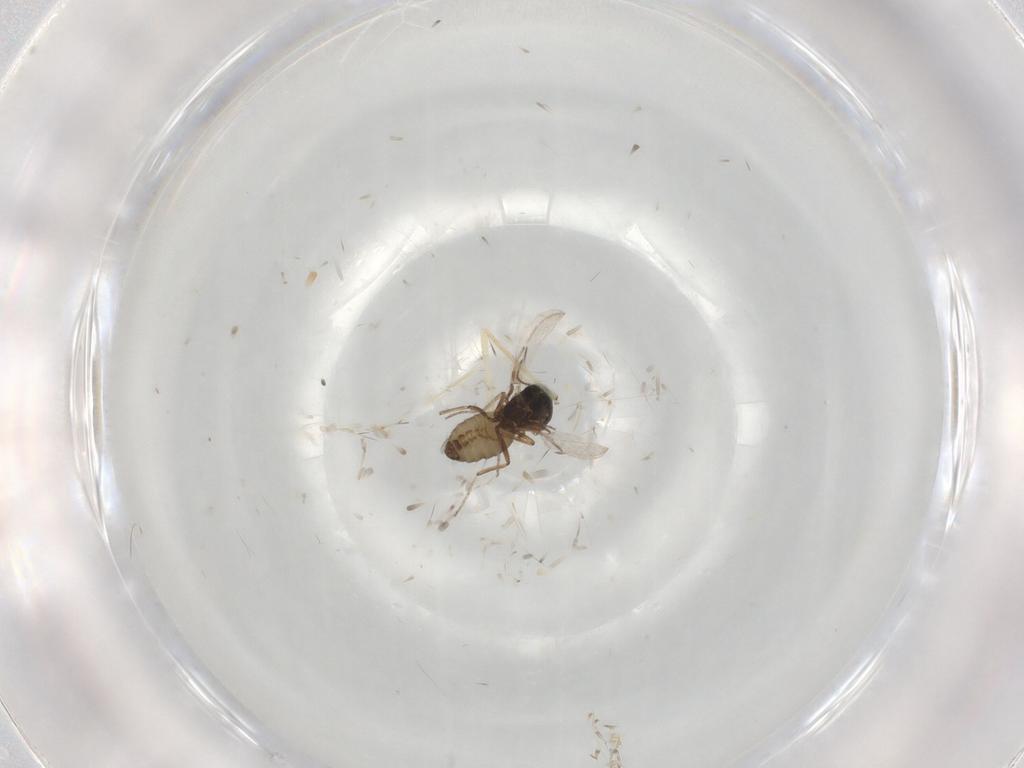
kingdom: Animalia
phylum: Arthropoda
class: Insecta
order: Diptera
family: Ceratopogonidae
